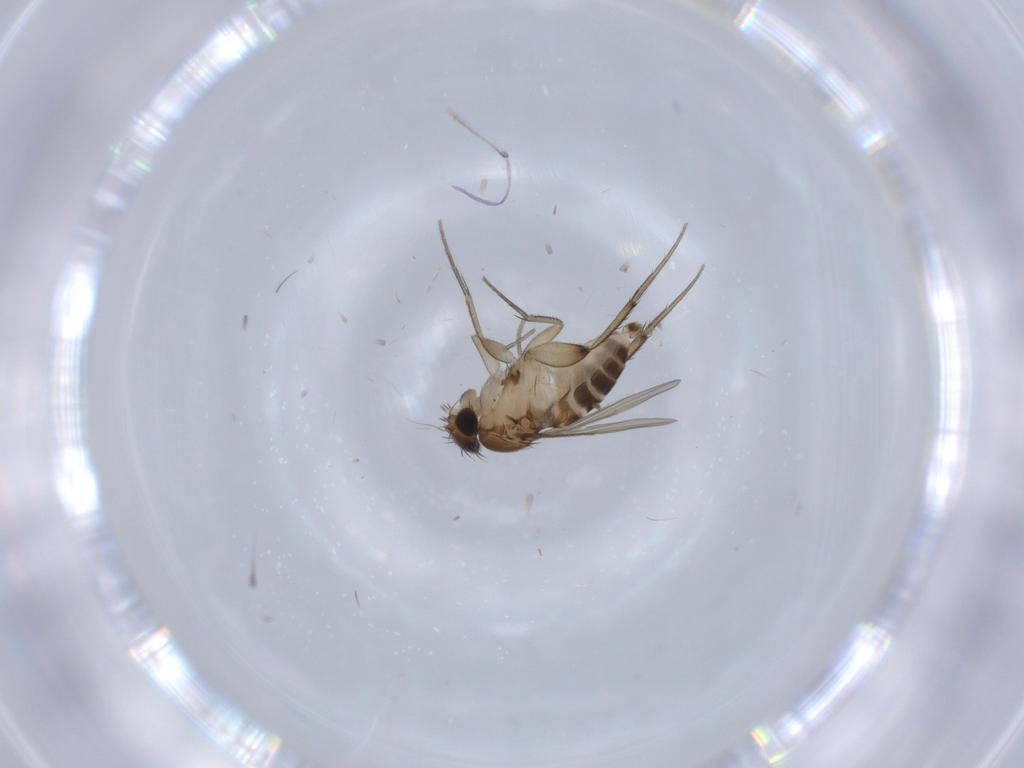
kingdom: Animalia
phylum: Arthropoda
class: Insecta
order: Diptera
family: Phoridae
